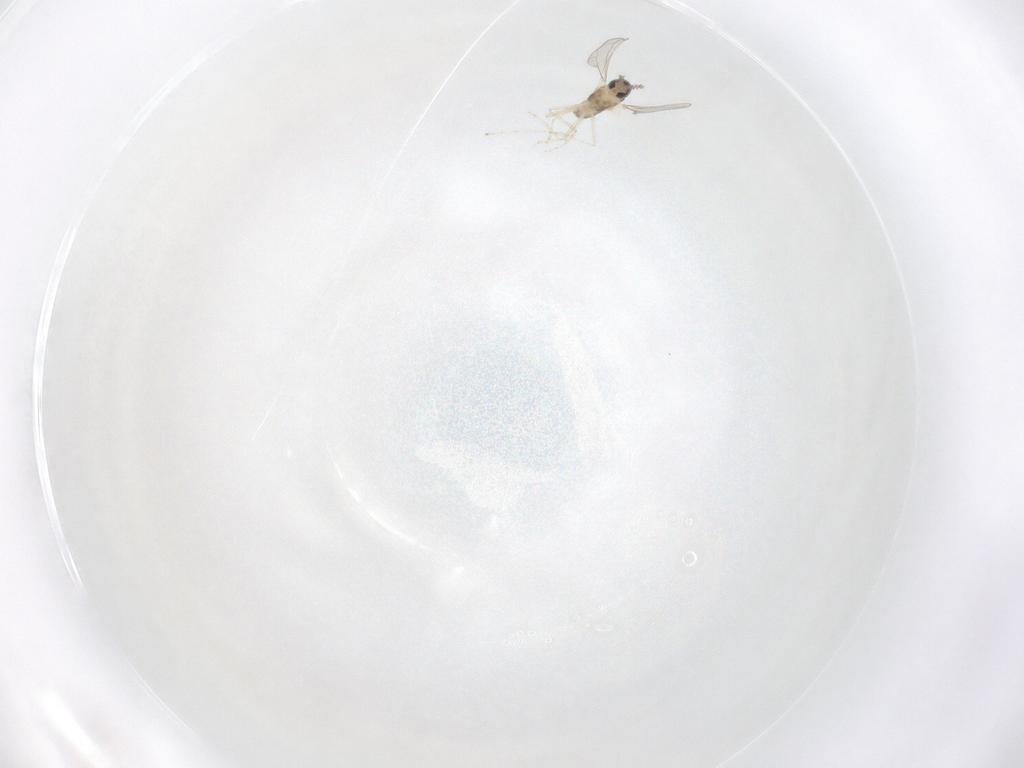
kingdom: Animalia
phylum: Arthropoda
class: Insecta
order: Diptera
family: Cecidomyiidae
